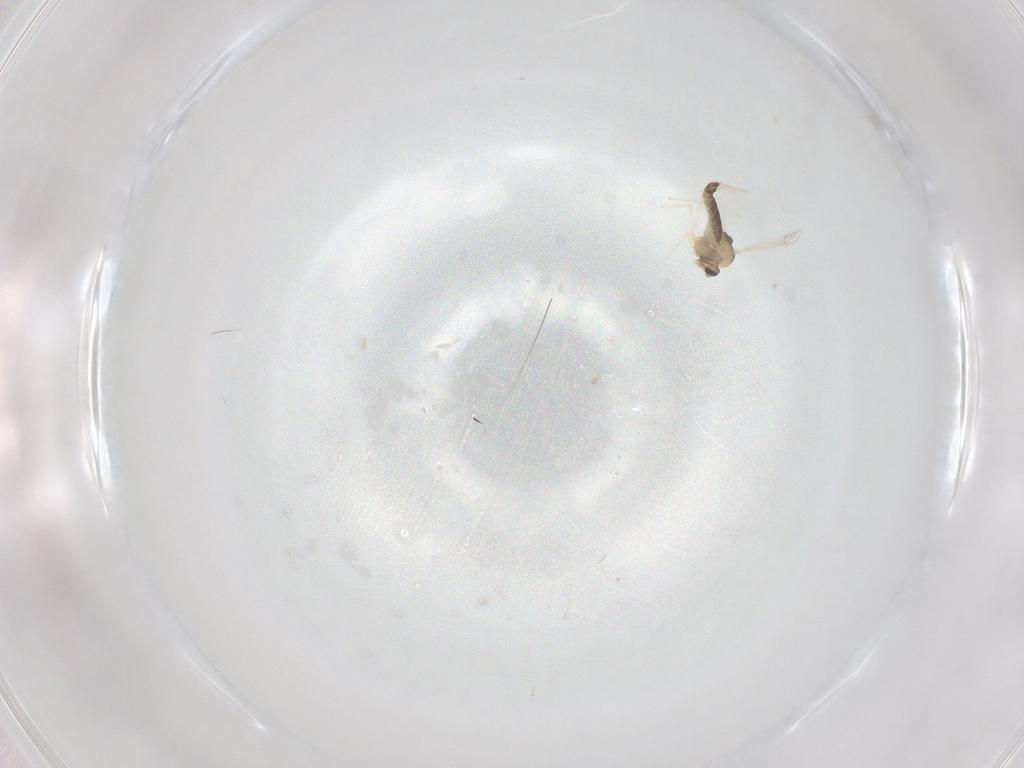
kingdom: Animalia
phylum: Arthropoda
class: Insecta
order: Diptera
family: Chironomidae
